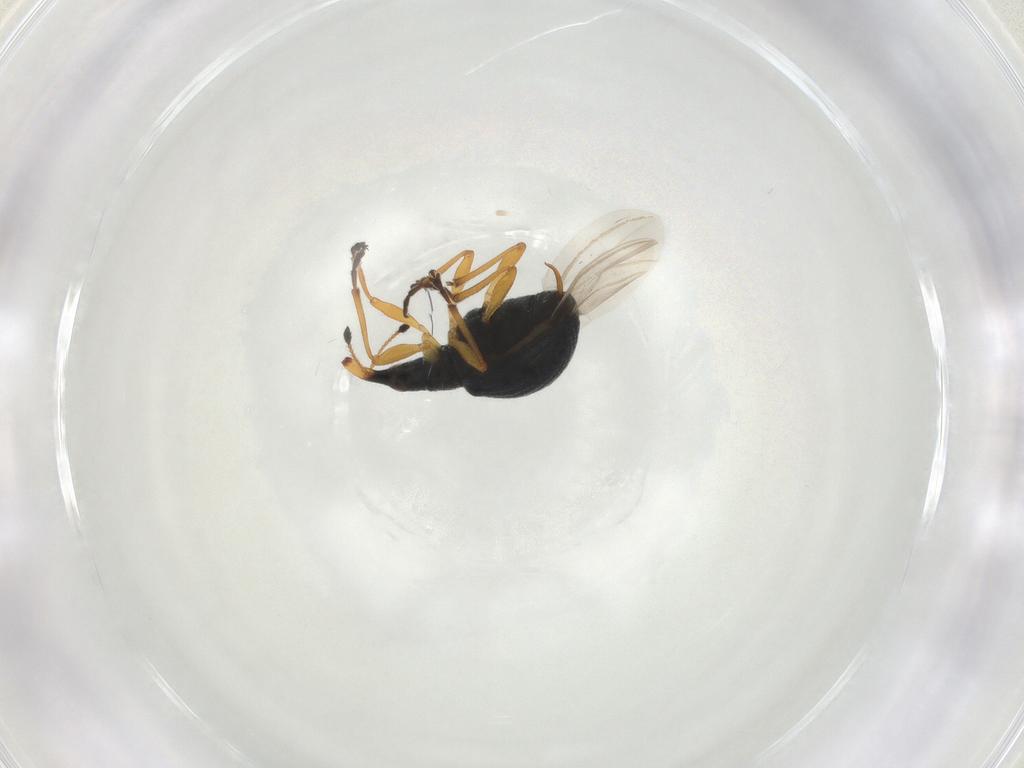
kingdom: Animalia
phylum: Arthropoda
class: Insecta
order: Coleoptera
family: Brentidae
